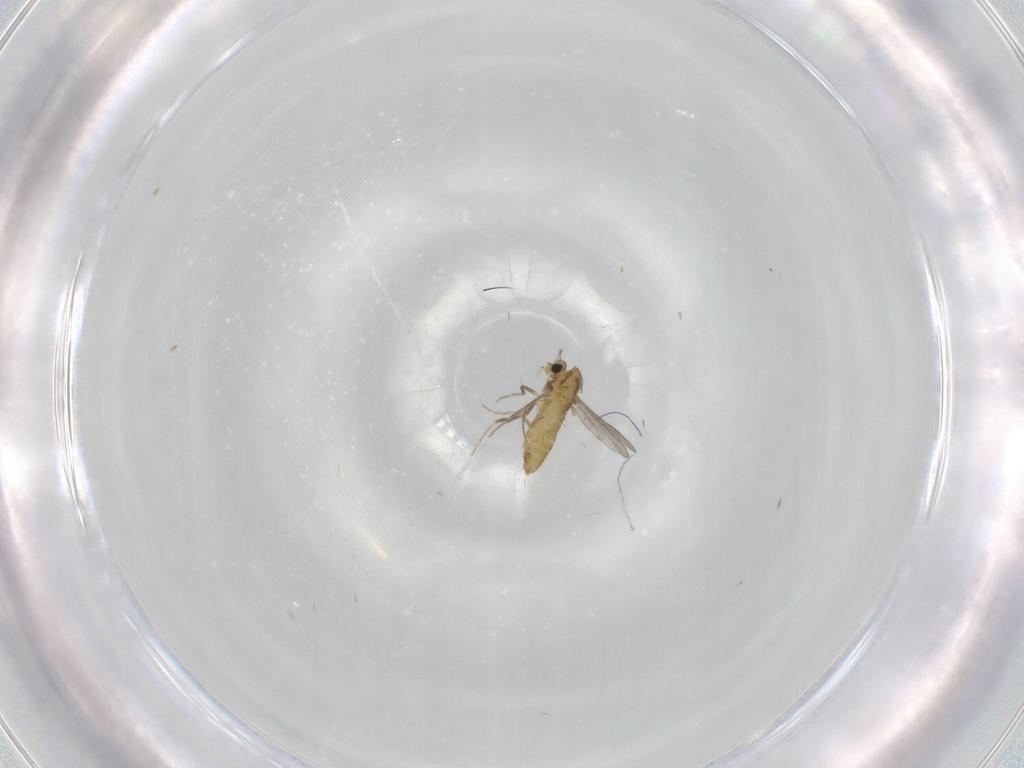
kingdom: Animalia
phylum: Arthropoda
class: Insecta
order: Diptera
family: Chironomidae
